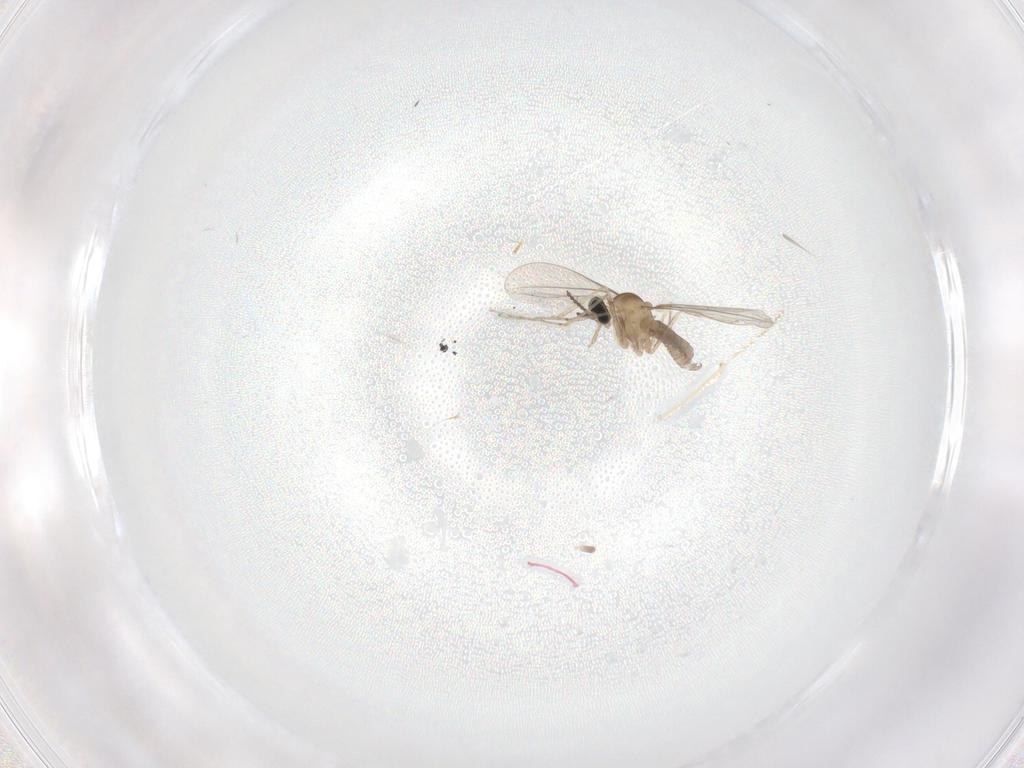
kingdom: Animalia
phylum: Arthropoda
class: Insecta
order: Diptera
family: Cecidomyiidae
